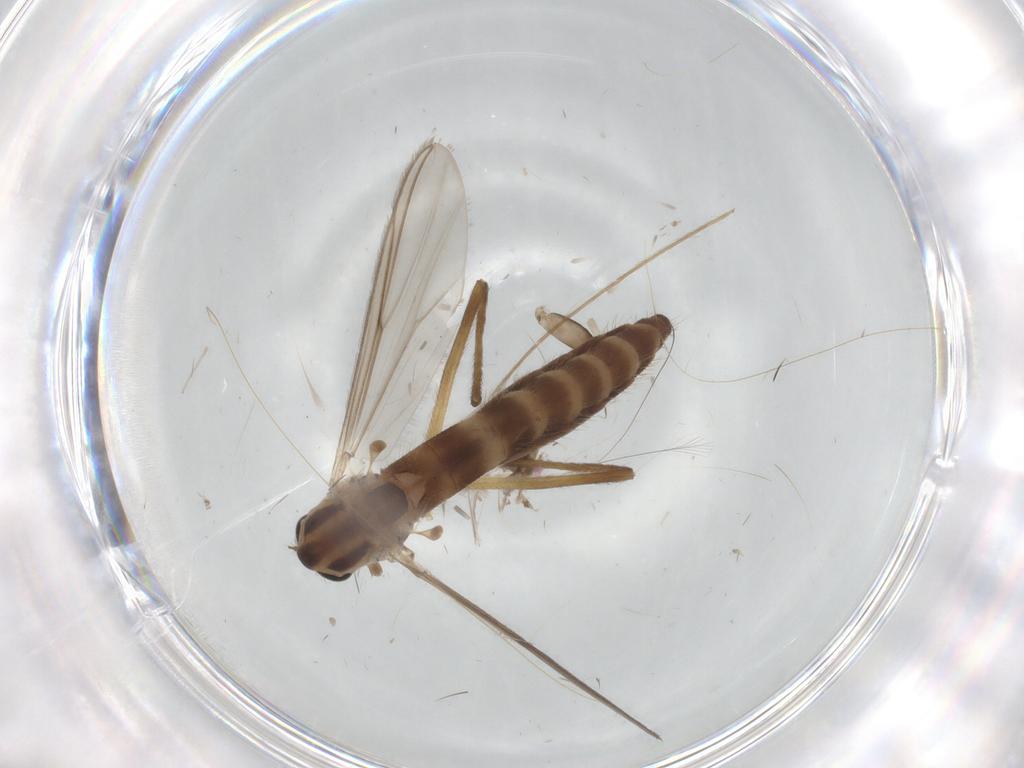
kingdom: Animalia
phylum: Arthropoda
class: Insecta
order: Diptera
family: Chironomidae
